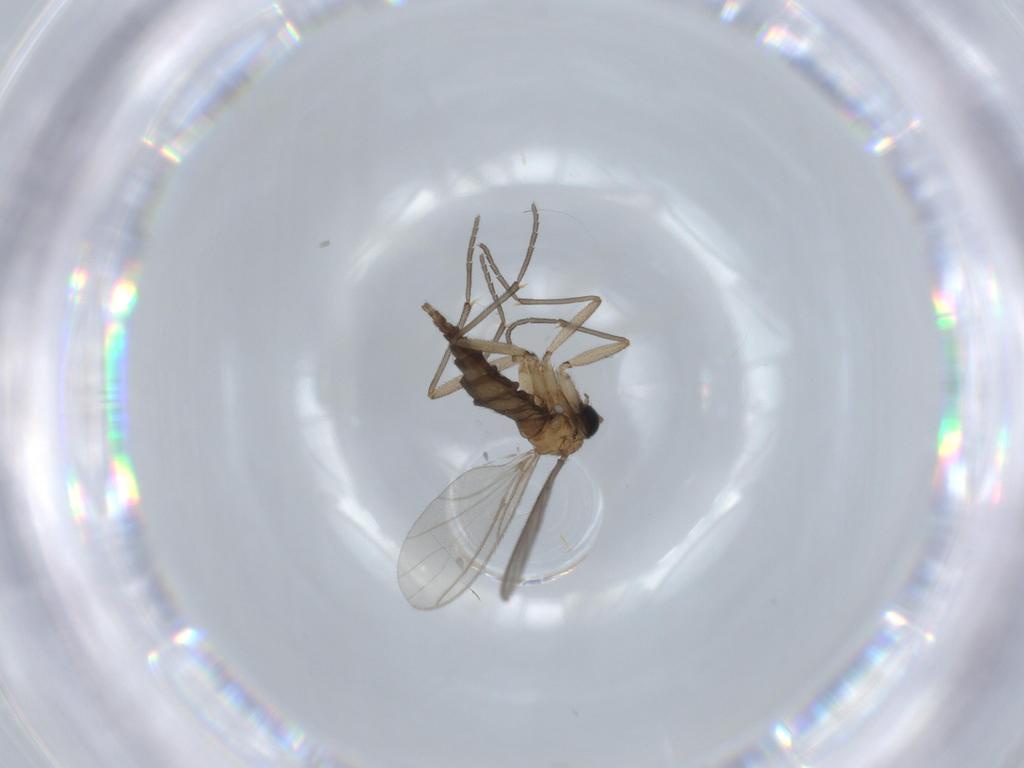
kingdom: Animalia
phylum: Arthropoda
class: Insecta
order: Diptera
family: Sciaridae
